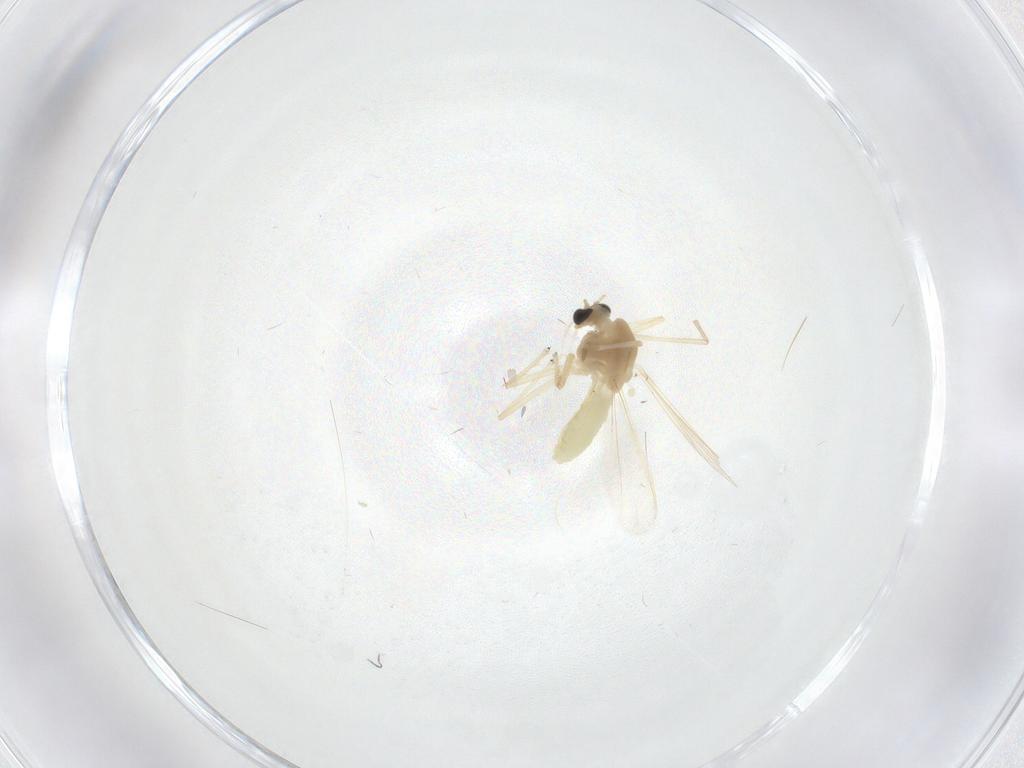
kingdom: Animalia
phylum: Arthropoda
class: Insecta
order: Diptera
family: Chironomidae
